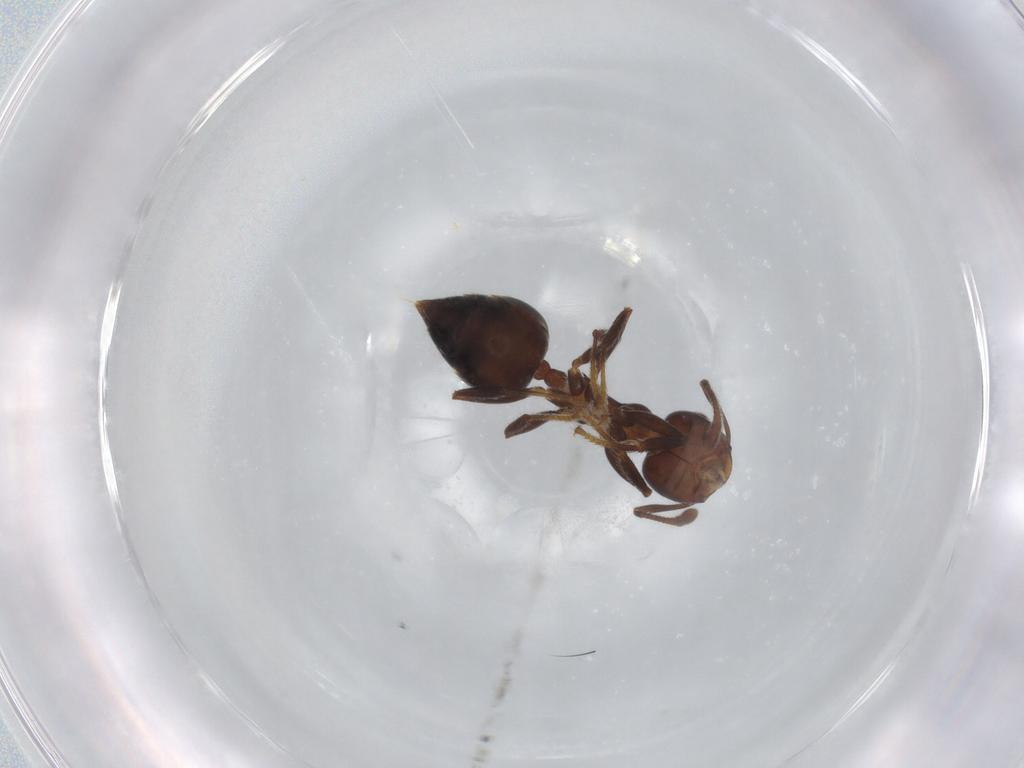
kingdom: Animalia
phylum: Arthropoda
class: Insecta
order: Hymenoptera
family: Formicidae
